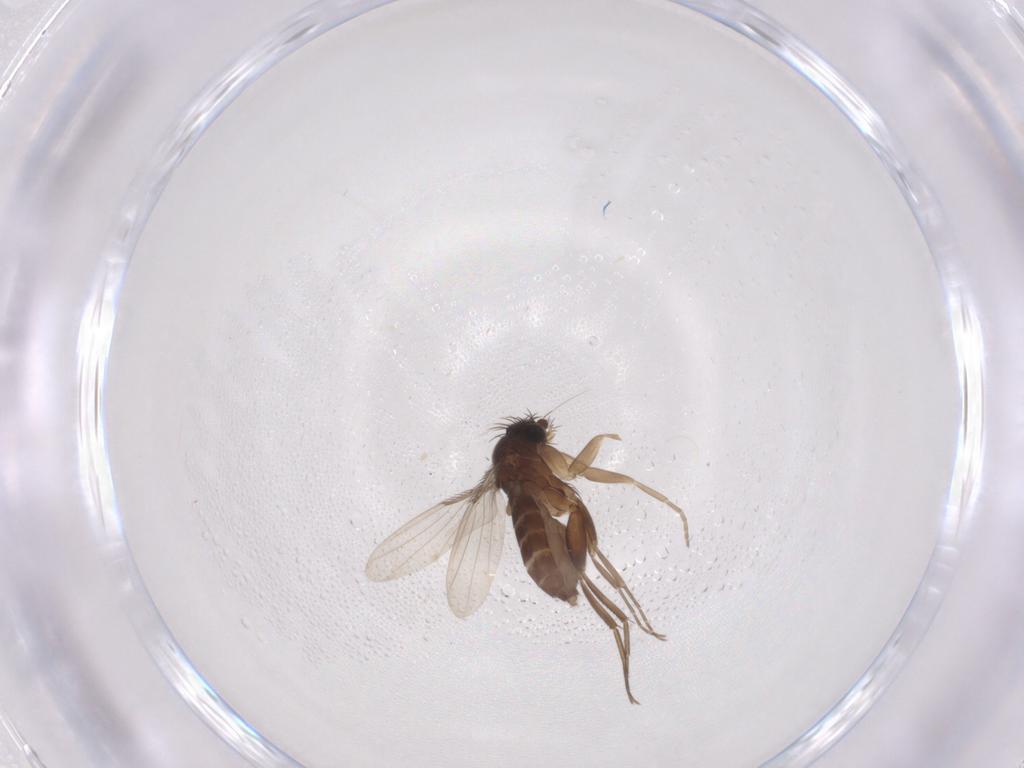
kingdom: Animalia
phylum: Arthropoda
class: Insecta
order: Diptera
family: Phoridae
